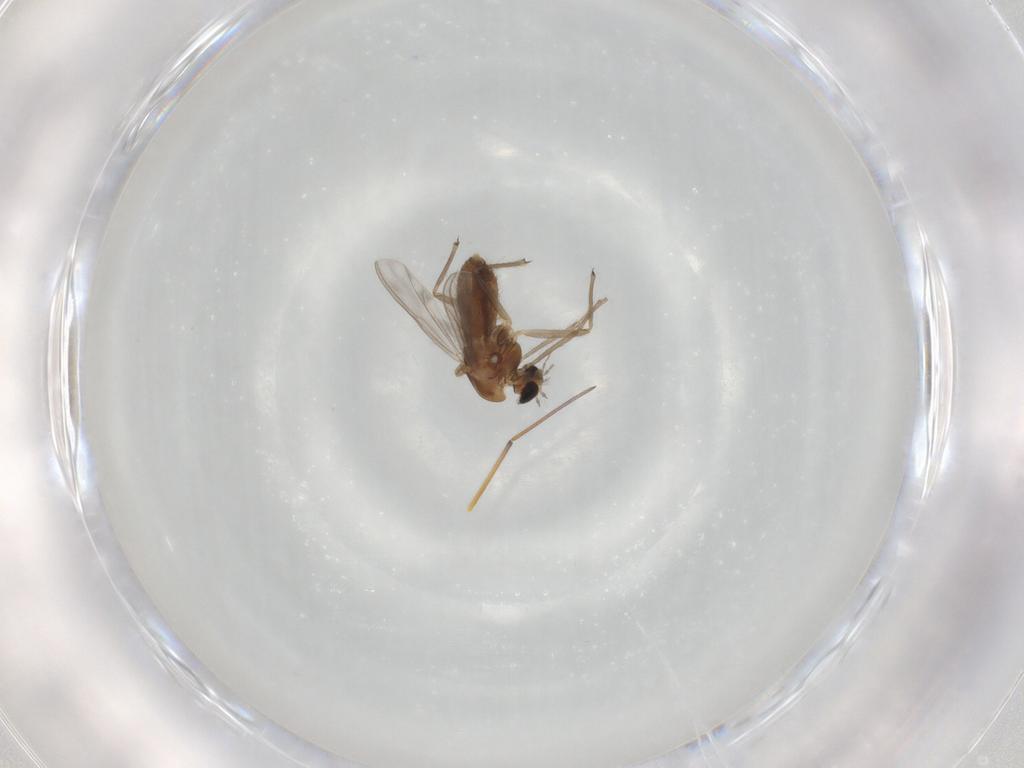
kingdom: Animalia
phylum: Arthropoda
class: Insecta
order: Diptera
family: Chironomidae
